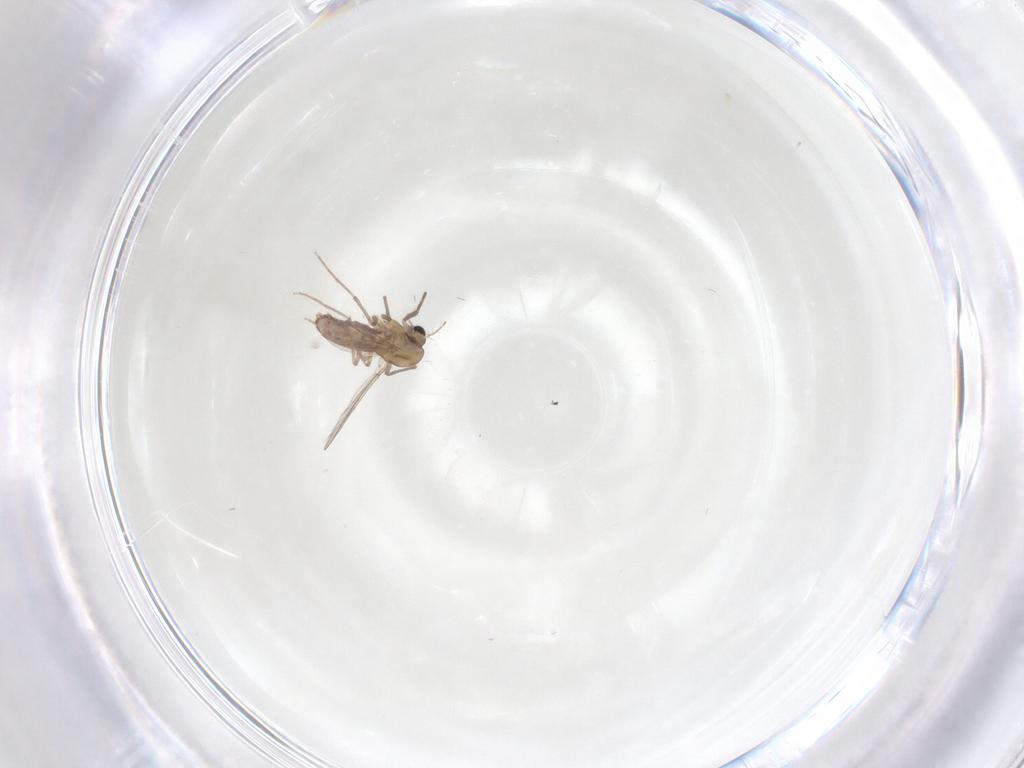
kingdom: Animalia
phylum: Arthropoda
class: Insecta
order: Diptera
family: Chironomidae
